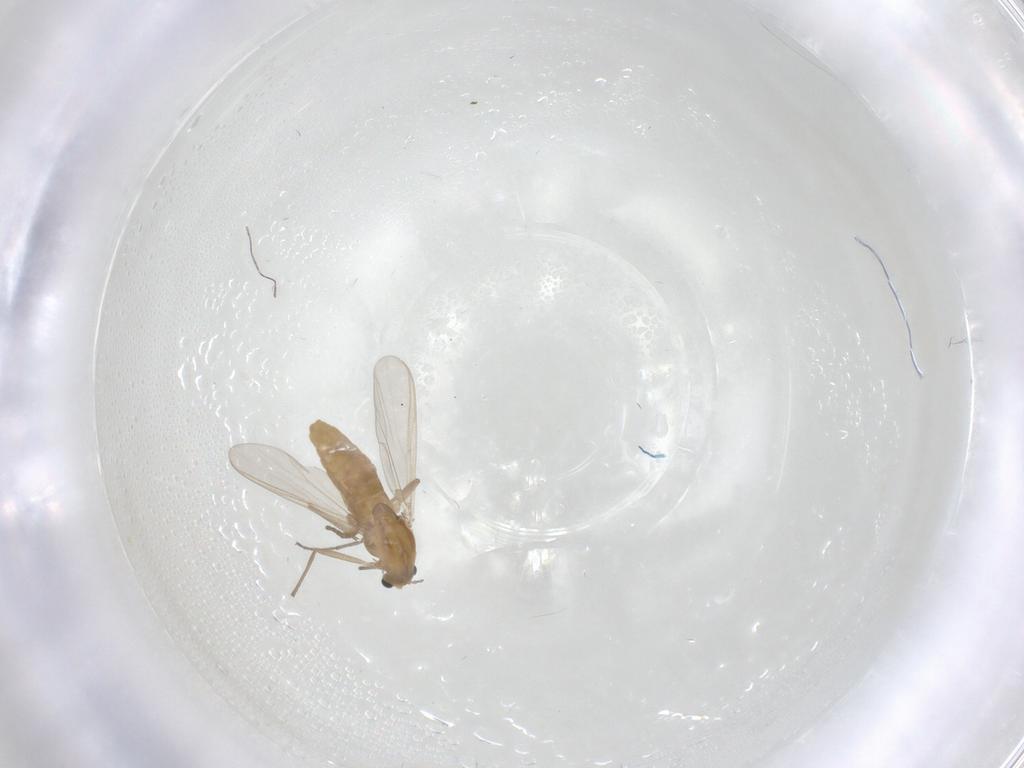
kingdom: Animalia
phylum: Arthropoda
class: Insecta
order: Diptera
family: Chironomidae
